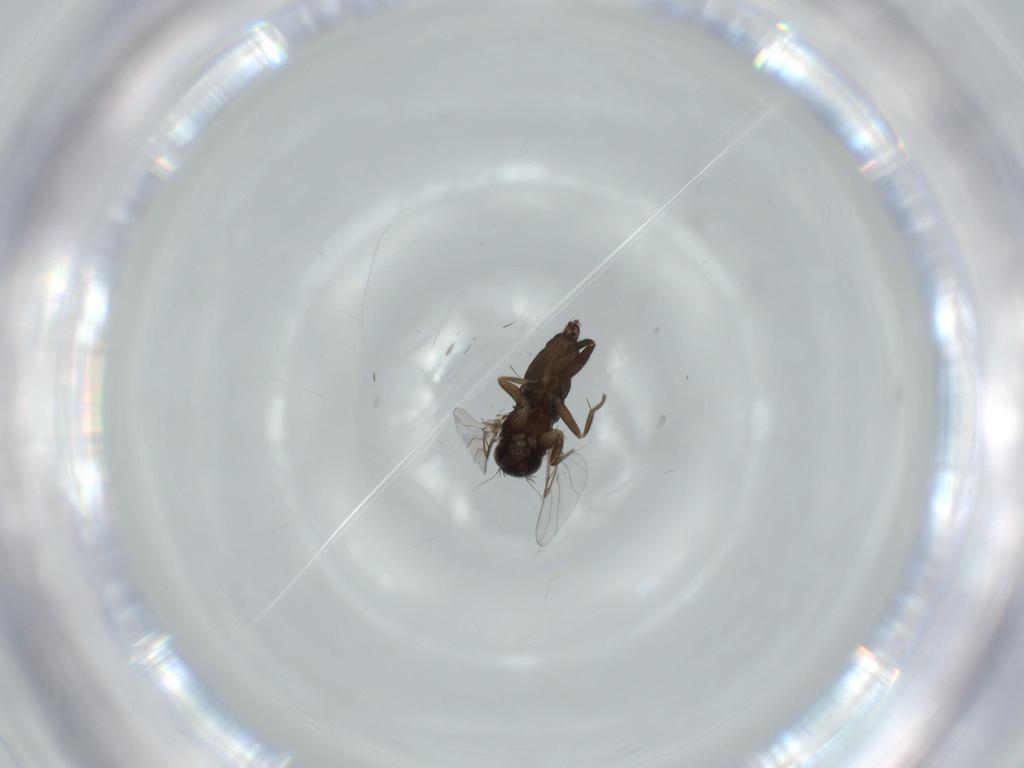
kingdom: Animalia
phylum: Arthropoda
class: Insecta
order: Diptera
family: Phoridae
